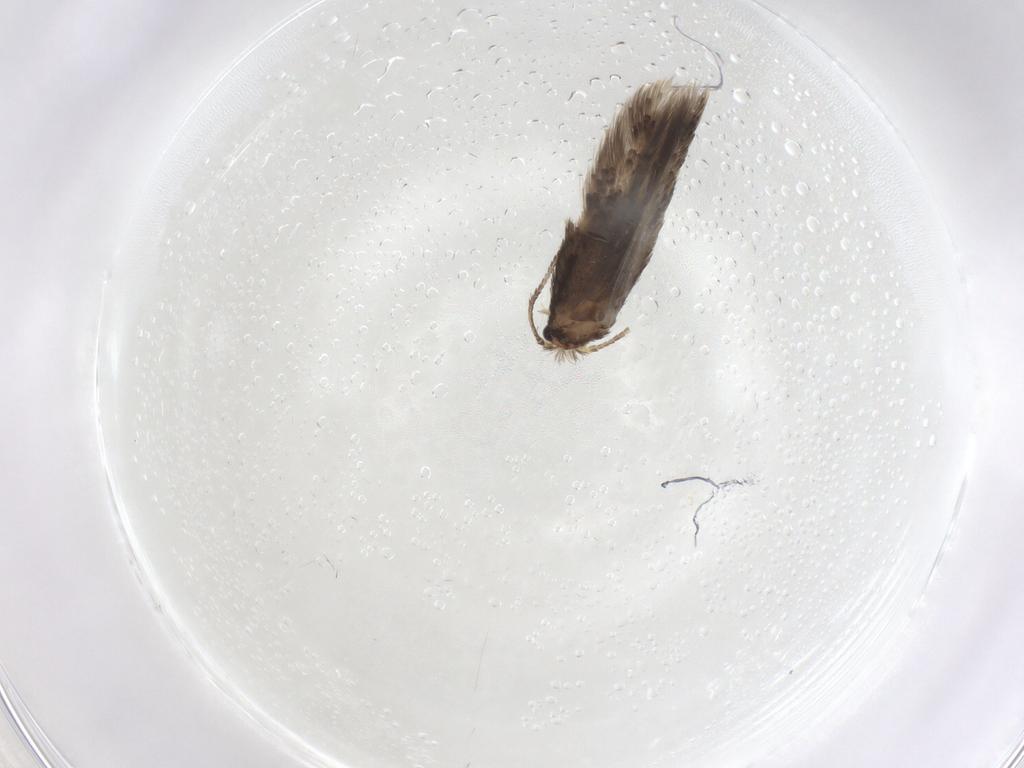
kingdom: Animalia
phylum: Arthropoda
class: Insecta
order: Lepidoptera
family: Nepticulidae
